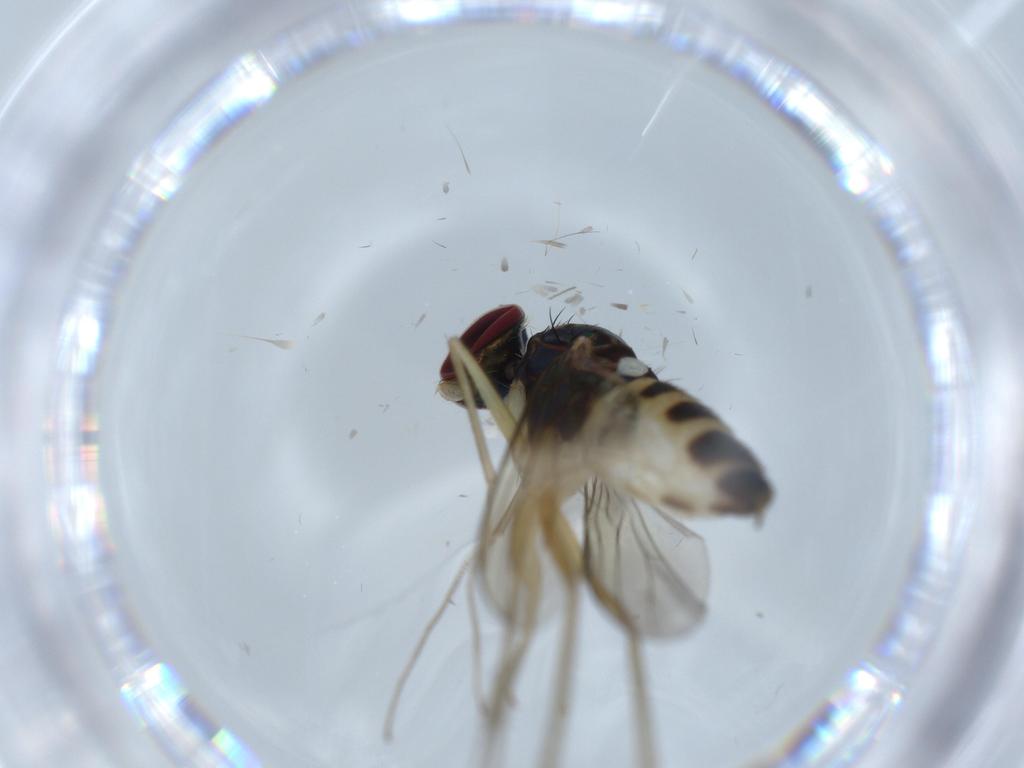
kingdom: Animalia
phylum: Arthropoda
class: Insecta
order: Diptera
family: Dolichopodidae
